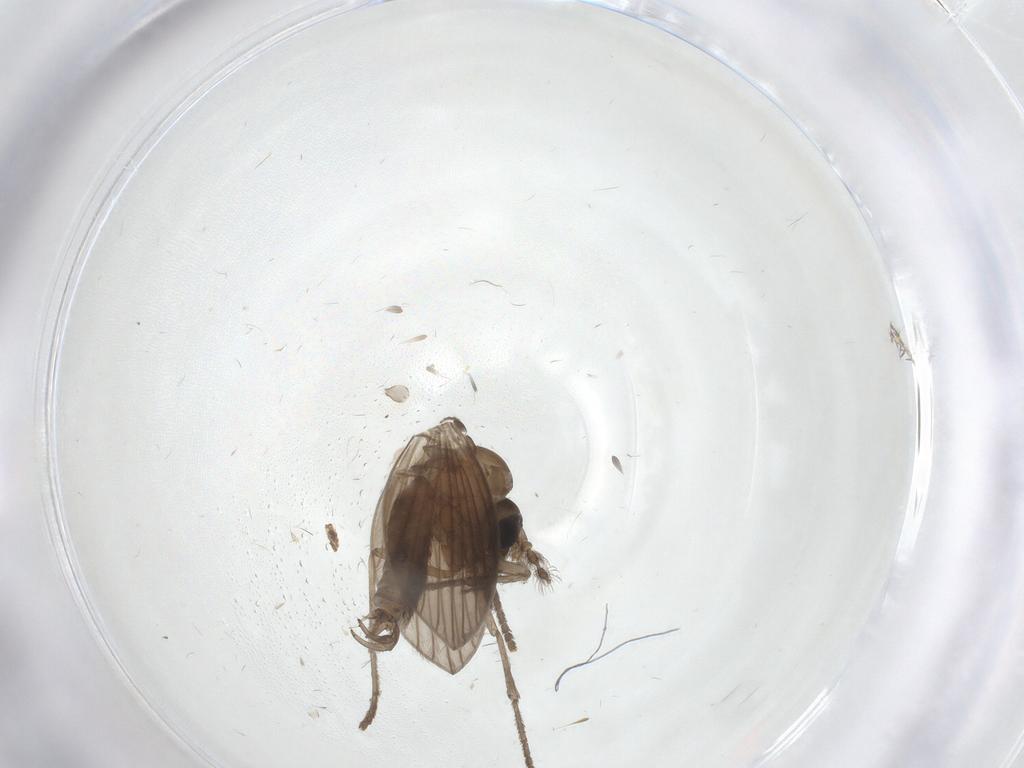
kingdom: Animalia
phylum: Arthropoda
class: Insecta
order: Diptera
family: Psychodidae
